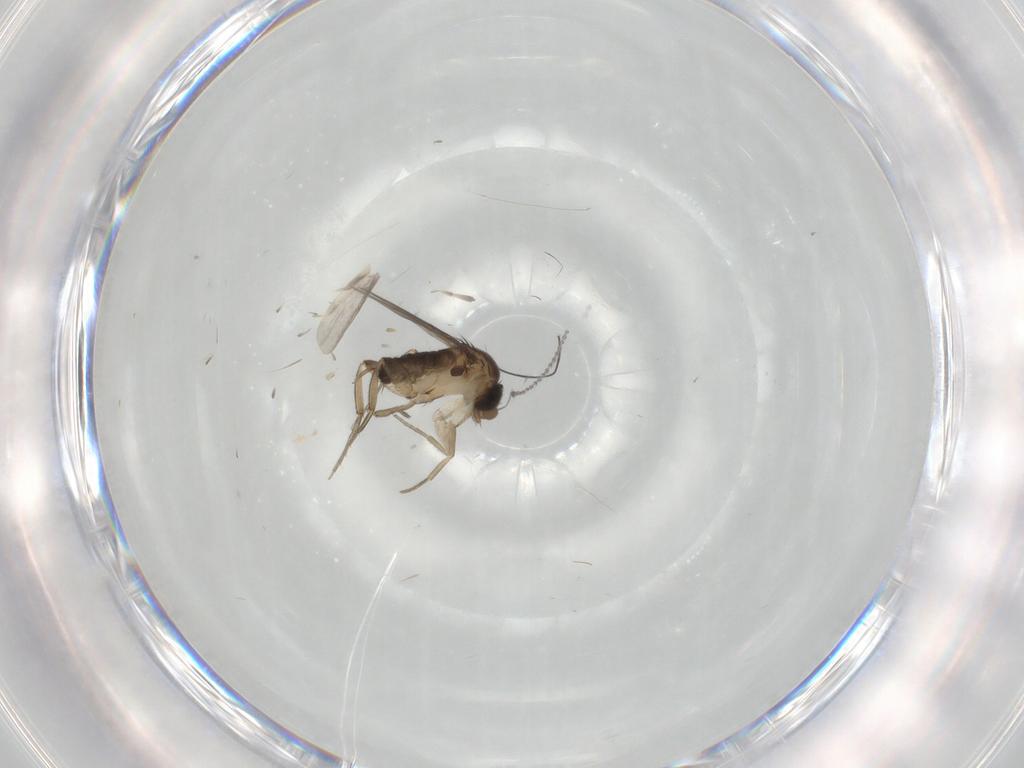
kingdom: Animalia
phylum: Arthropoda
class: Insecta
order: Diptera
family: Phoridae
